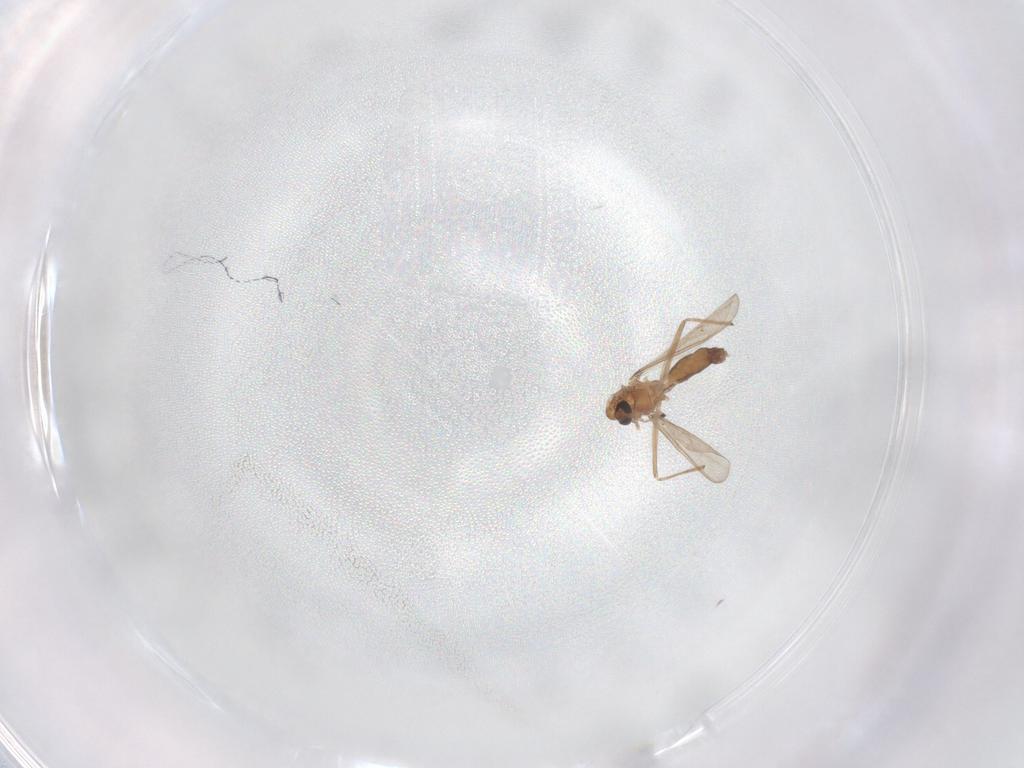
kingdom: Animalia
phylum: Arthropoda
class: Insecta
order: Diptera
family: Chironomidae
